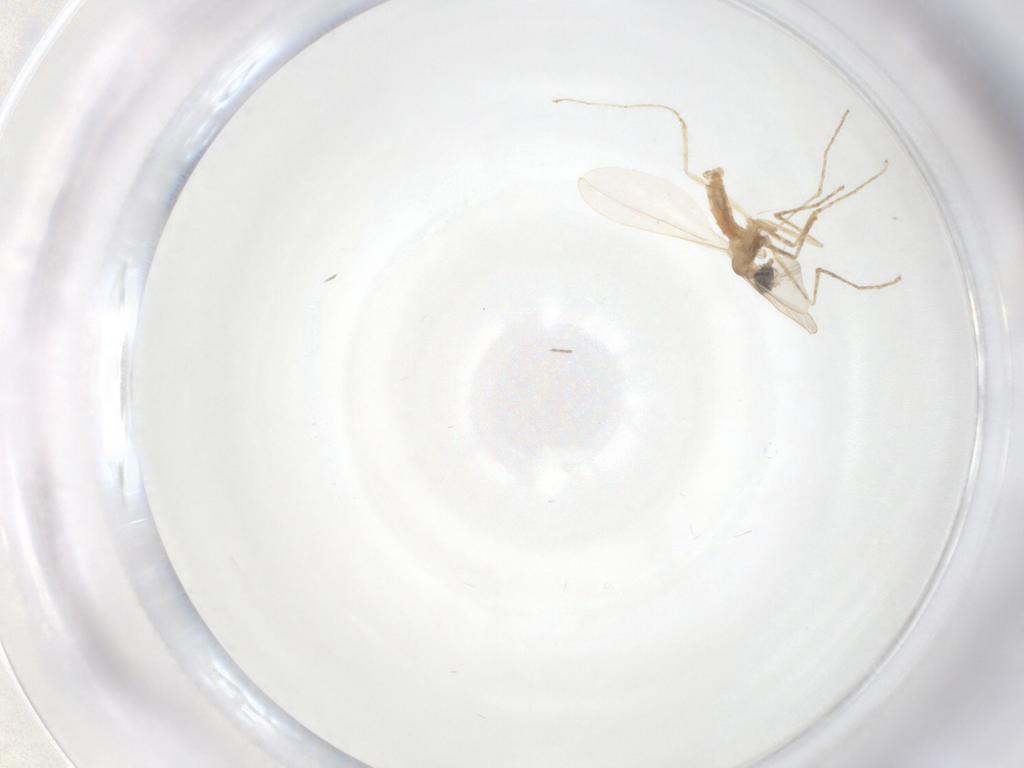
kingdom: Animalia
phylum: Arthropoda
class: Insecta
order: Diptera
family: Cecidomyiidae
